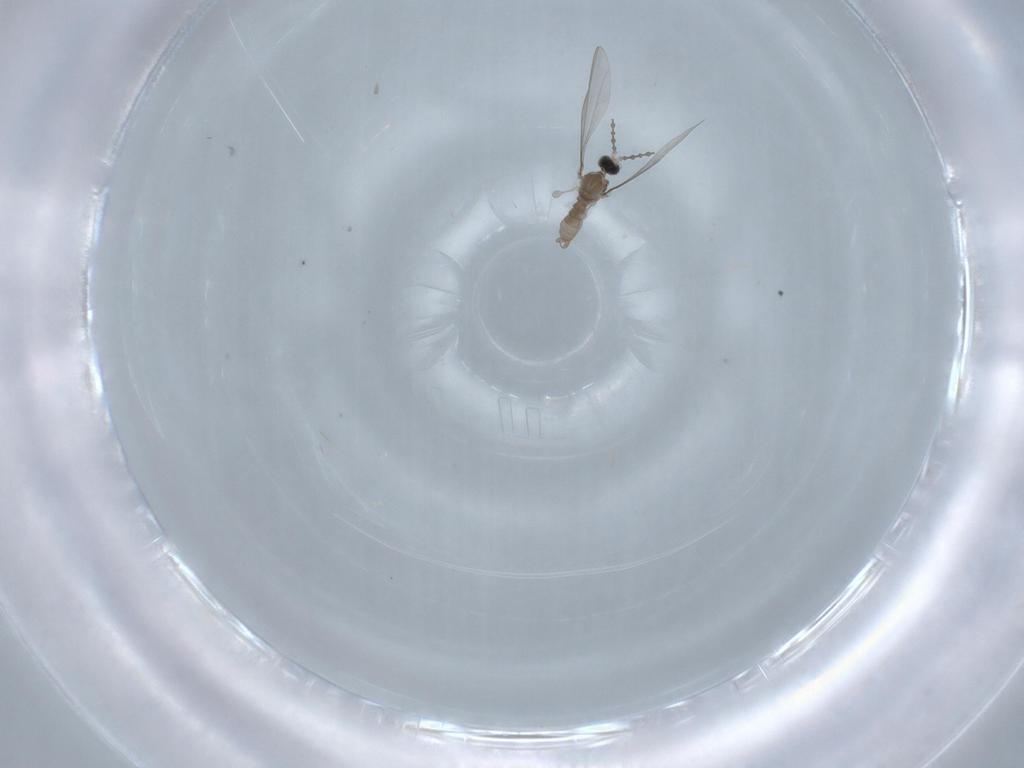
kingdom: Animalia
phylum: Arthropoda
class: Insecta
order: Diptera
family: Cecidomyiidae
